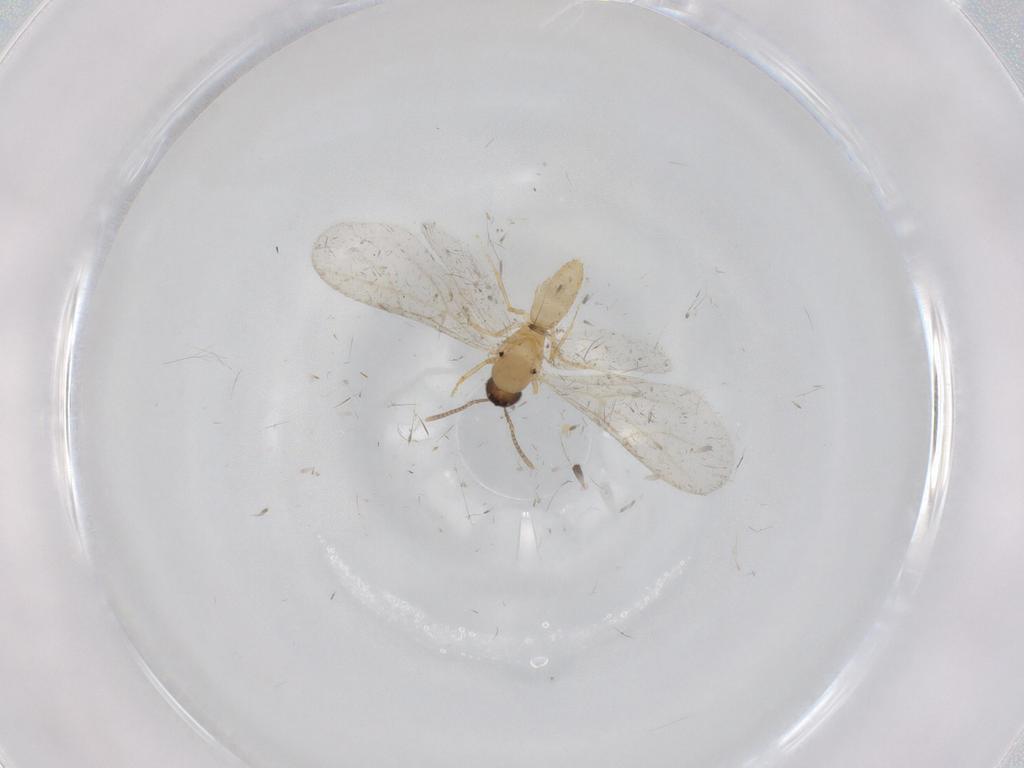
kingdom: Animalia
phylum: Arthropoda
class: Insecta
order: Hymenoptera
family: Formicidae
